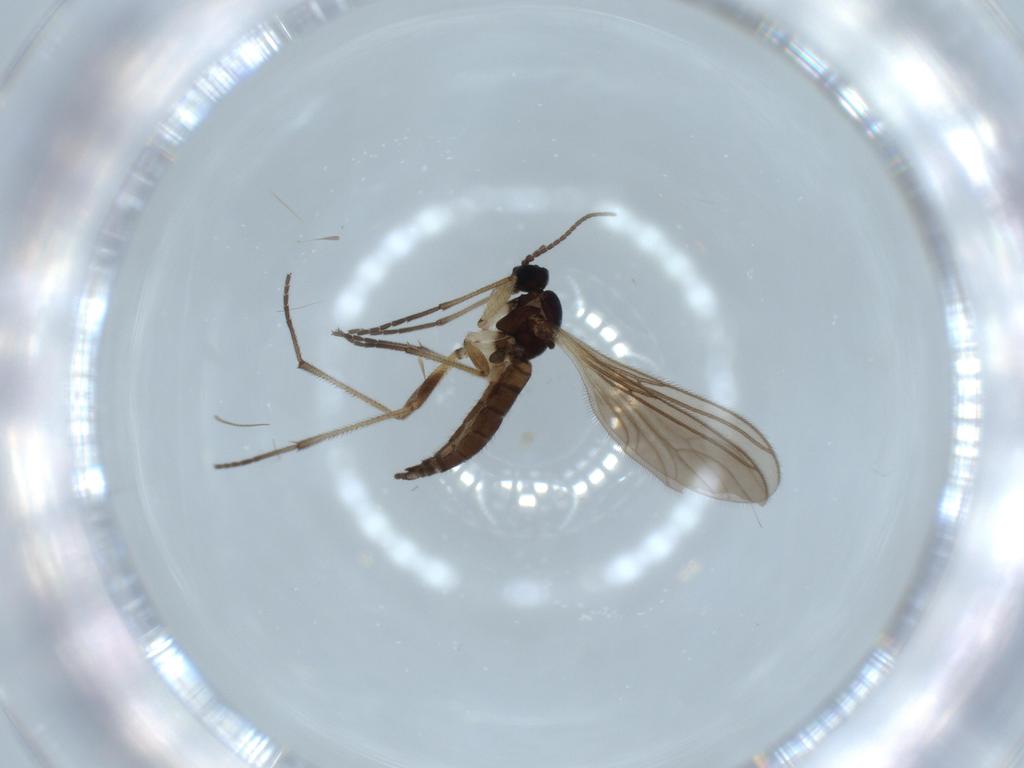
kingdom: Animalia
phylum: Arthropoda
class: Insecta
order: Diptera
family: Sciaridae
